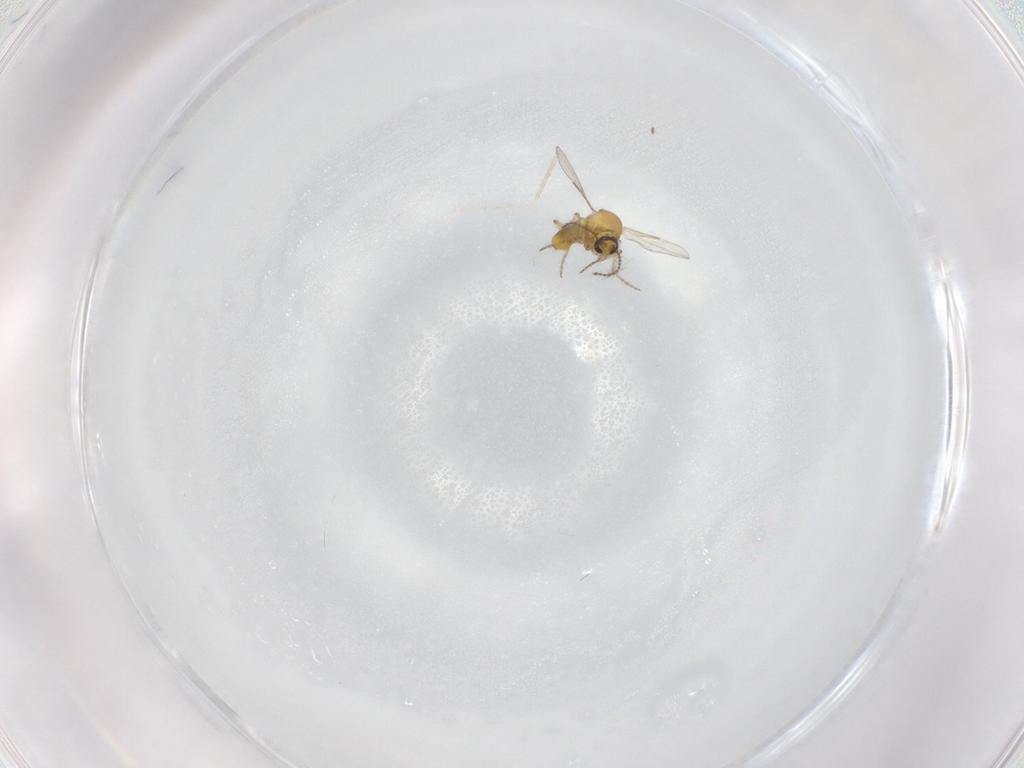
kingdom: Animalia
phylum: Arthropoda
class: Insecta
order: Diptera
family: Ceratopogonidae
